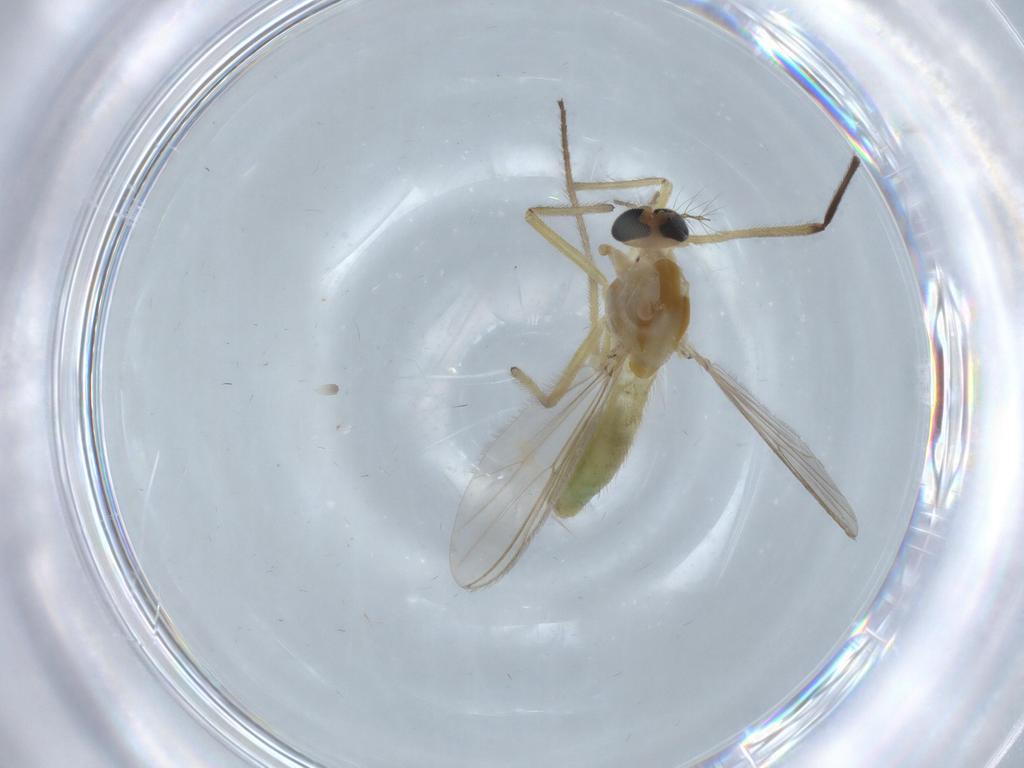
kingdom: Animalia
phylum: Arthropoda
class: Insecta
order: Diptera
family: Chironomidae
